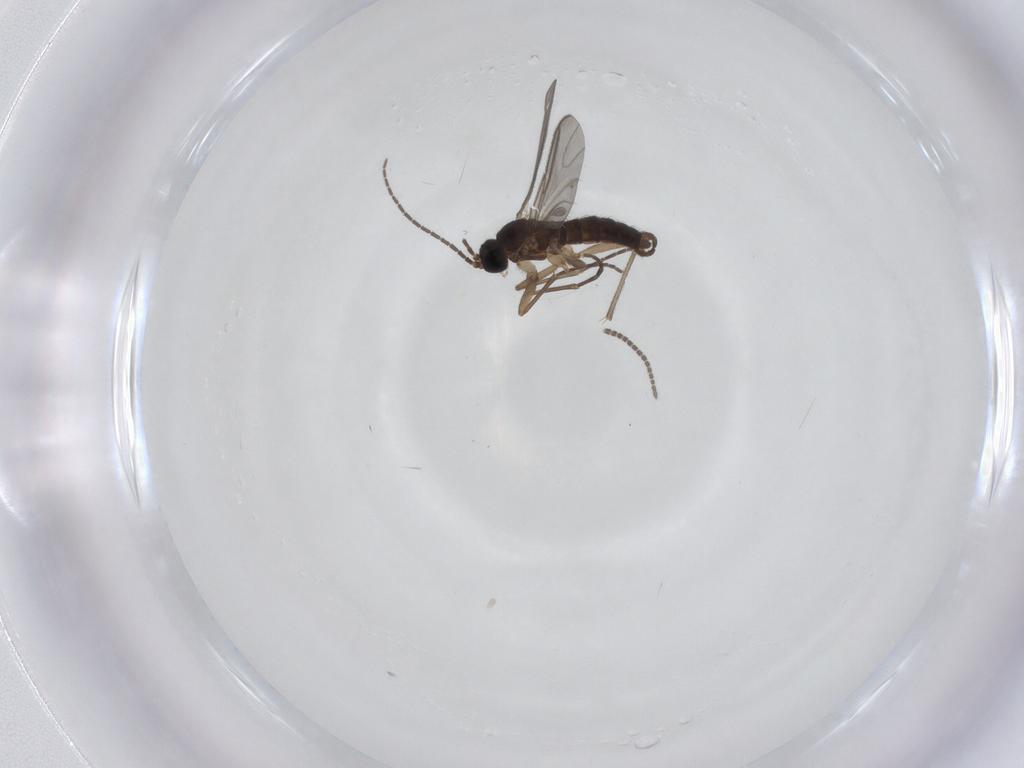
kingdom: Animalia
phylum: Arthropoda
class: Insecta
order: Diptera
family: Sciaridae
